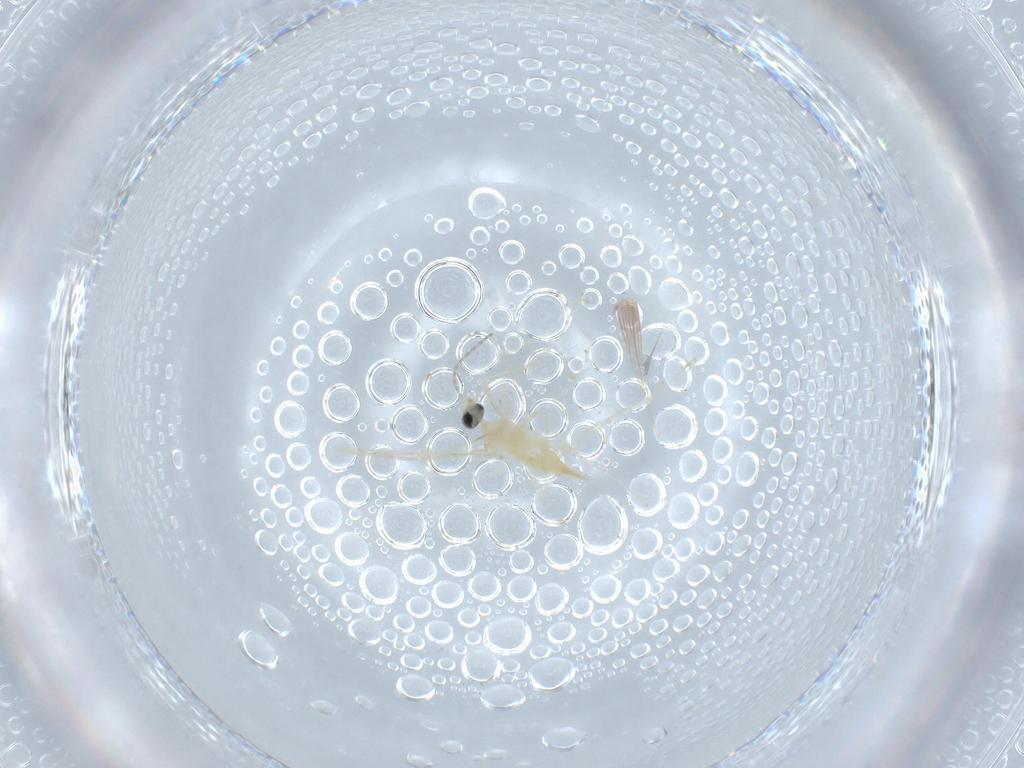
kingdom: Animalia
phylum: Arthropoda
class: Insecta
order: Diptera
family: Cecidomyiidae
